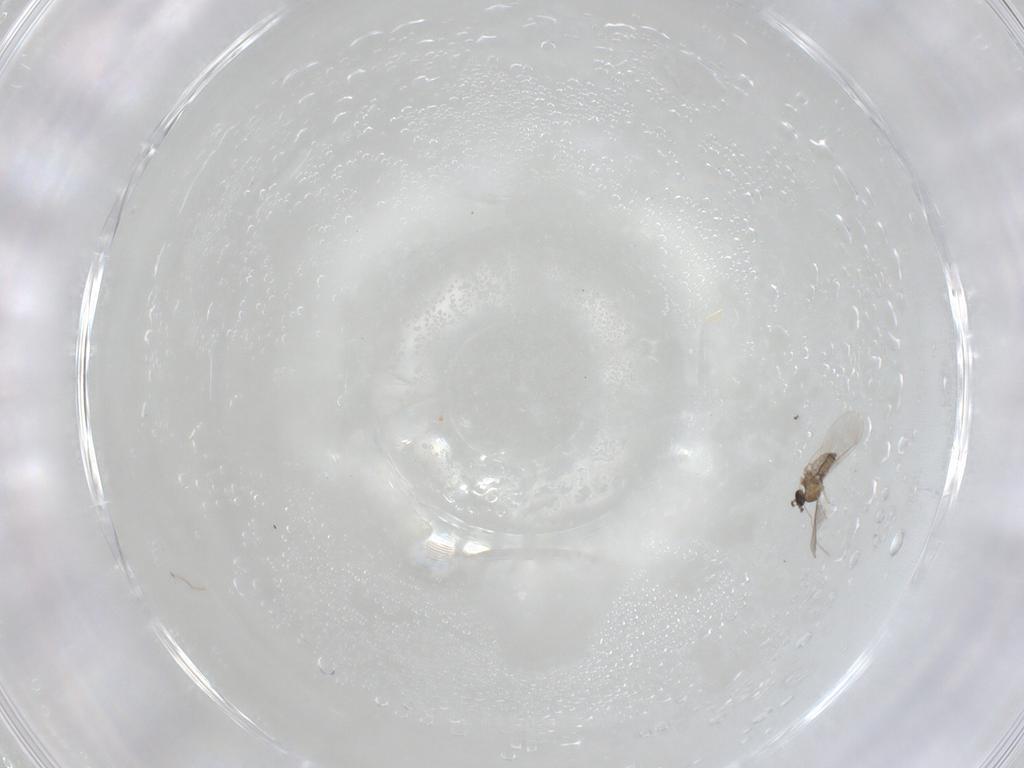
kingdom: Animalia
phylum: Arthropoda
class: Insecta
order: Diptera
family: Cecidomyiidae
